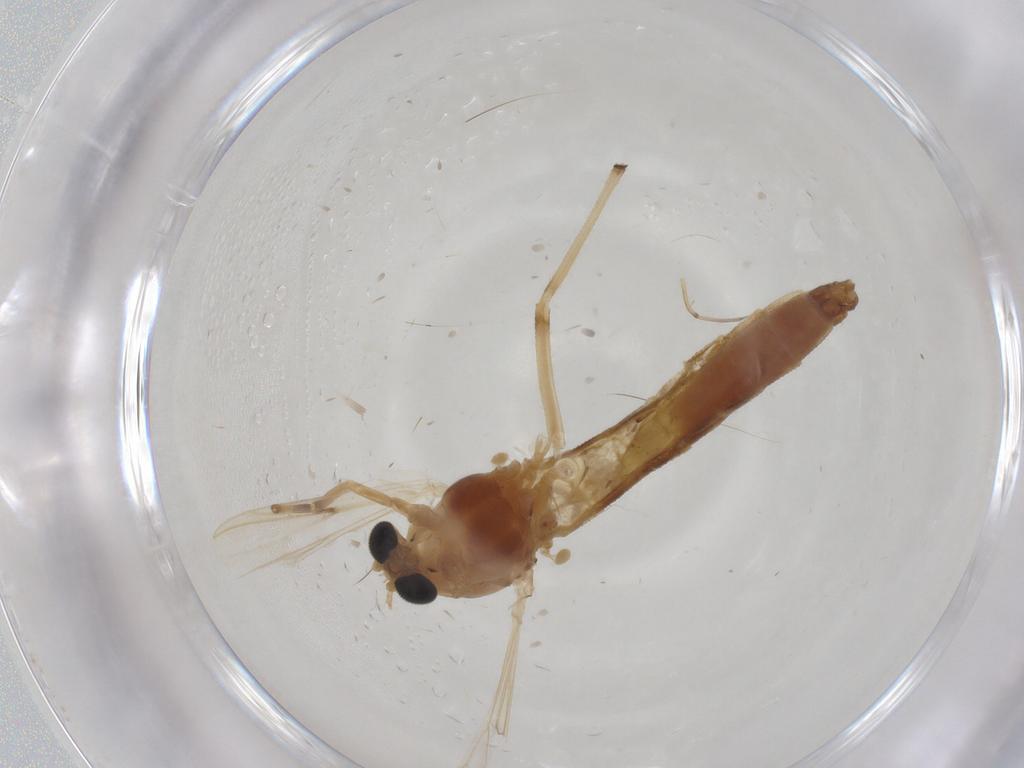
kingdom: Animalia
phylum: Arthropoda
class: Insecta
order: Diptera
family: Chironomidae
